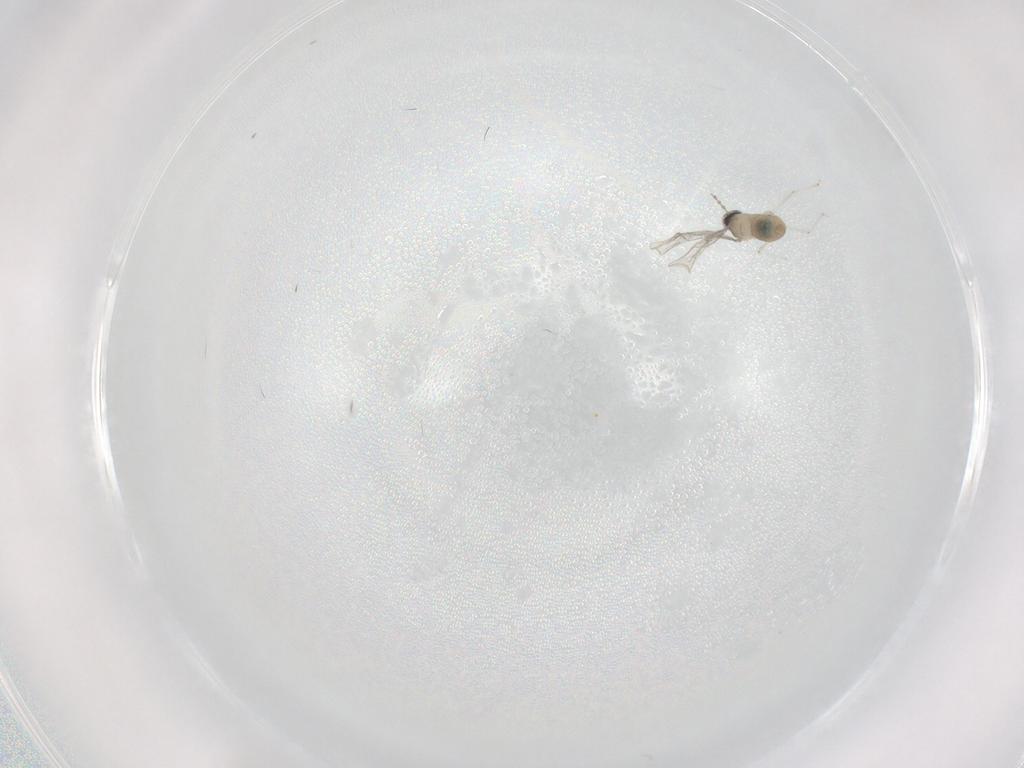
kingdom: Animalia
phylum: Arthropoda
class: Insecta
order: Diptera
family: Cecidomyiidae
